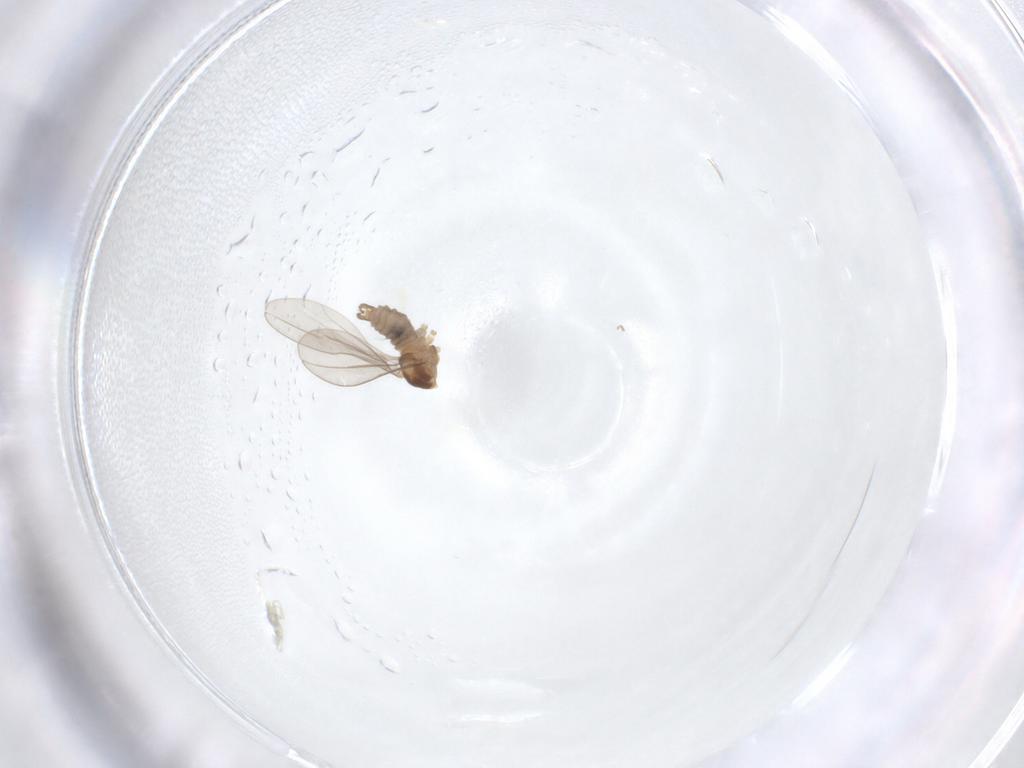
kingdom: Animalia
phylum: Arthropoda
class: Insecta
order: Diptera
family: Cecidomyiidae
